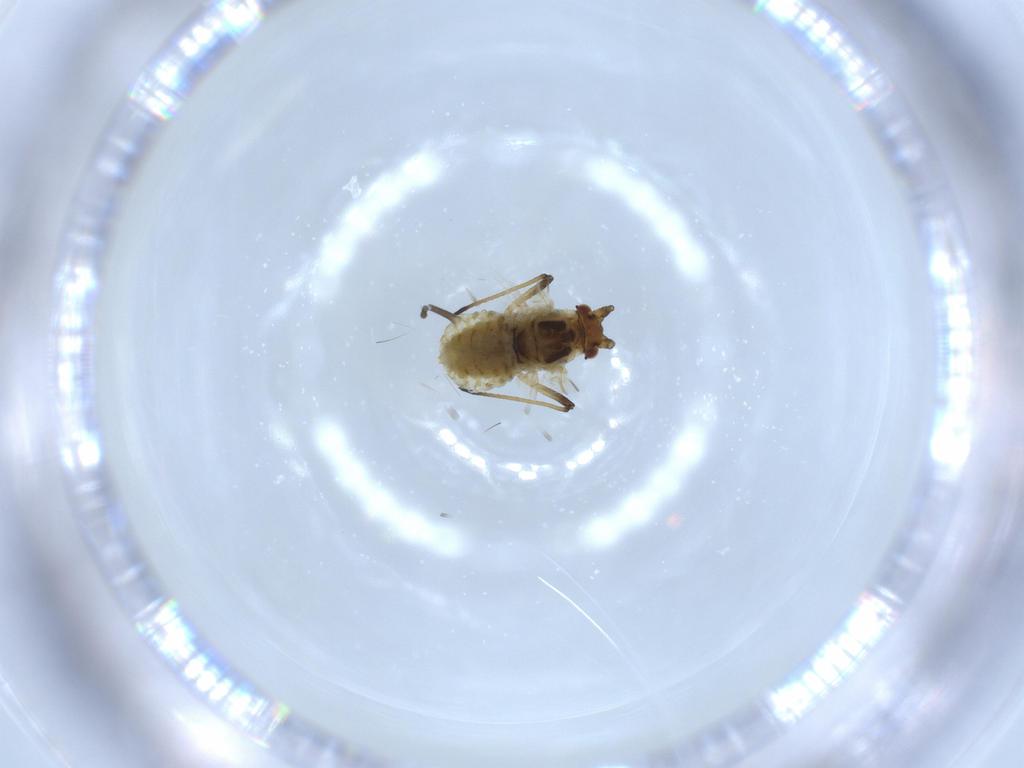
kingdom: Animalia
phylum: Arthropoda
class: Insecta
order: Hemiptera
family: Aphididae
